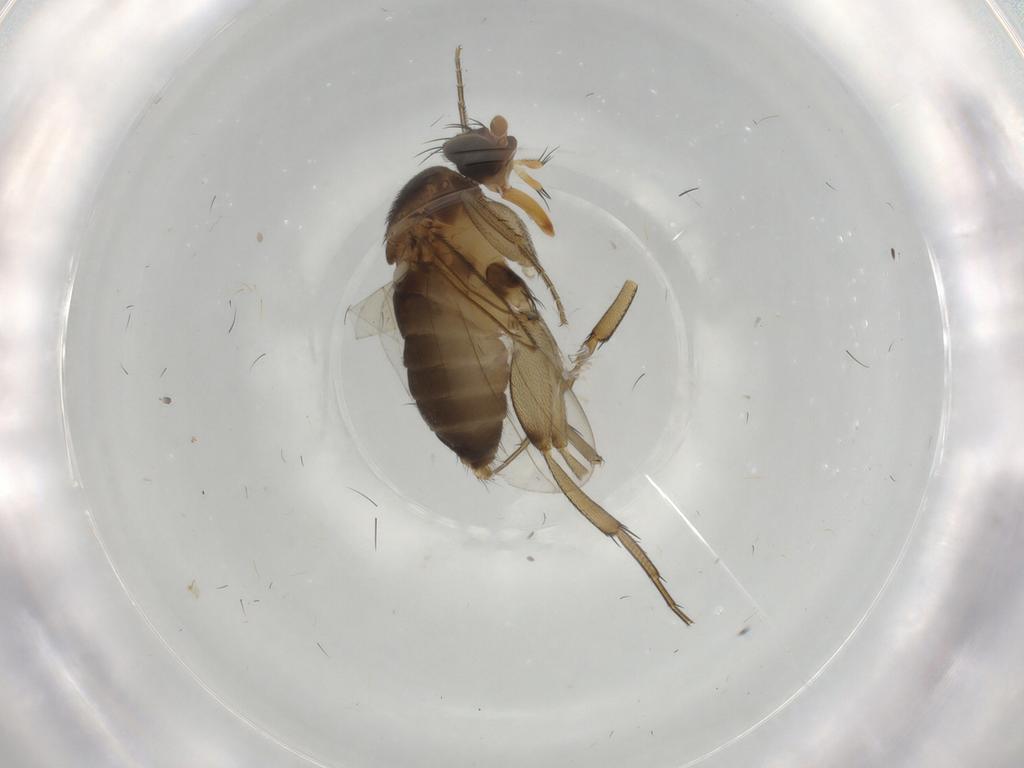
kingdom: Animalia
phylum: Arthropoda
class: Insecta
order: Diptera
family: Phoridae
